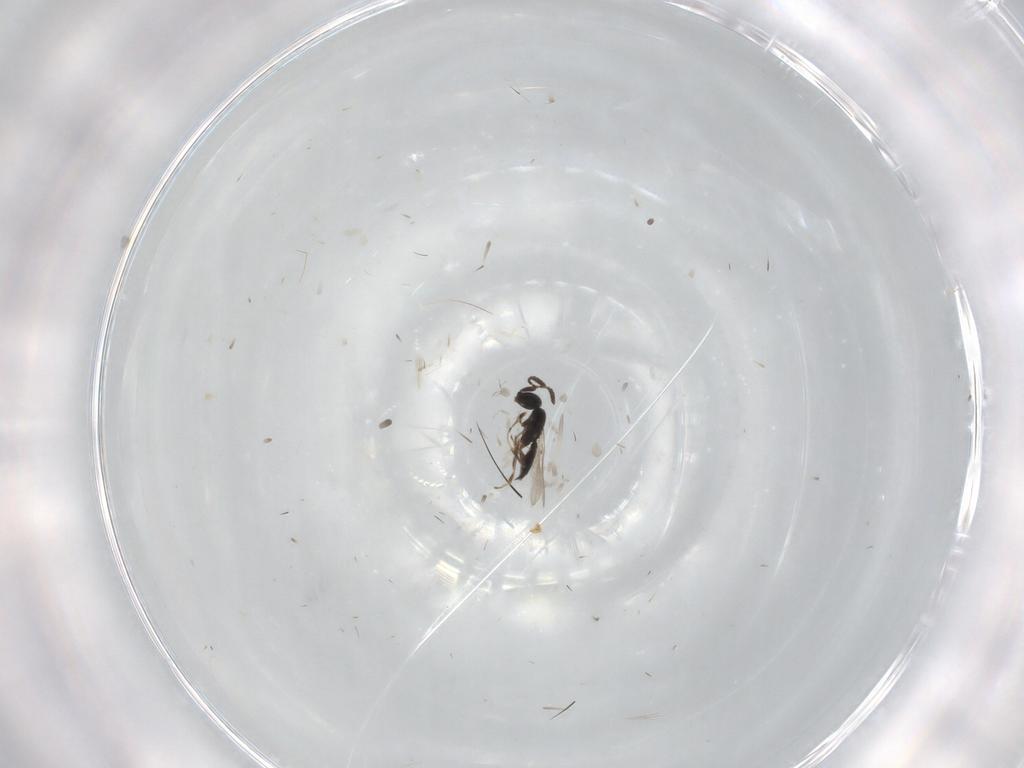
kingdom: Animalia
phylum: Arthropoda
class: Insecta
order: Hymenoptera
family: Scelionidae
